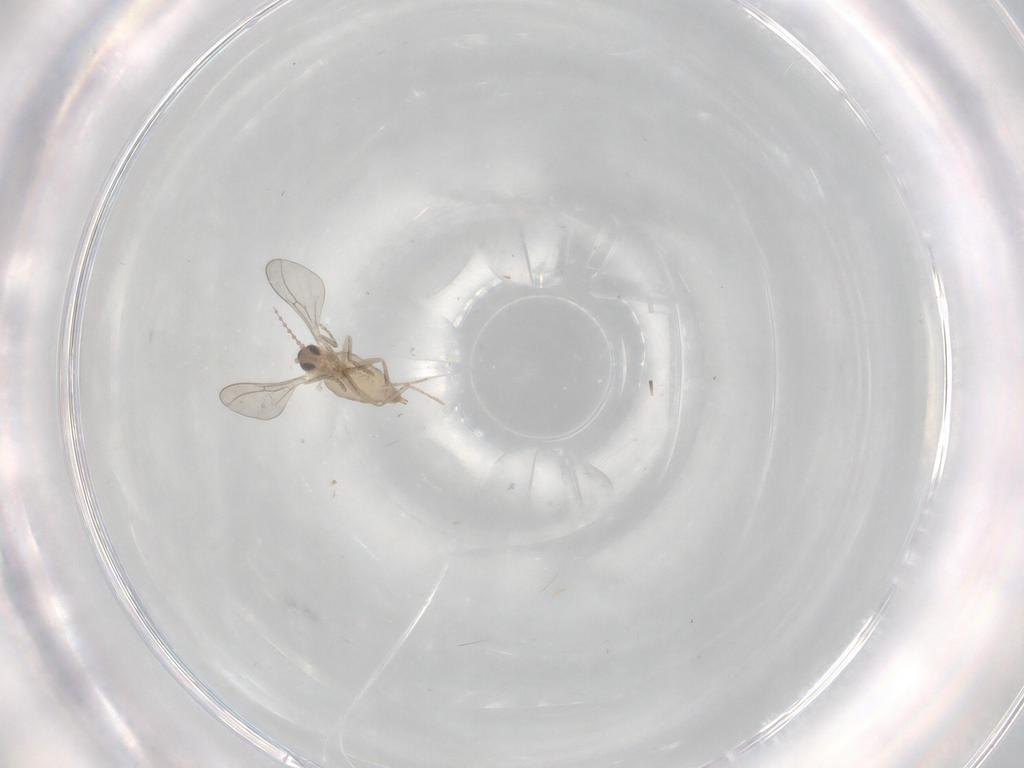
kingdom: Animalia
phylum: Arthropoda
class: Insecta
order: Diptera
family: Cecidomyiidae
